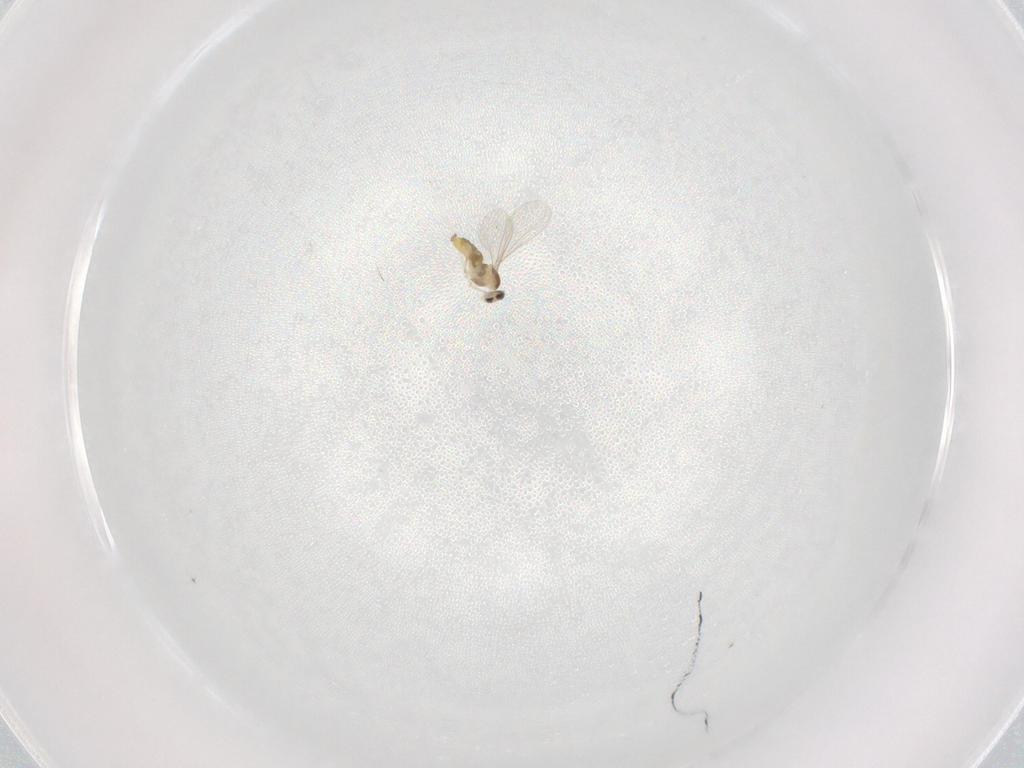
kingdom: Animalia
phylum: Arthropoda
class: Insecta
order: Diptera
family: Cecidomyiidae
